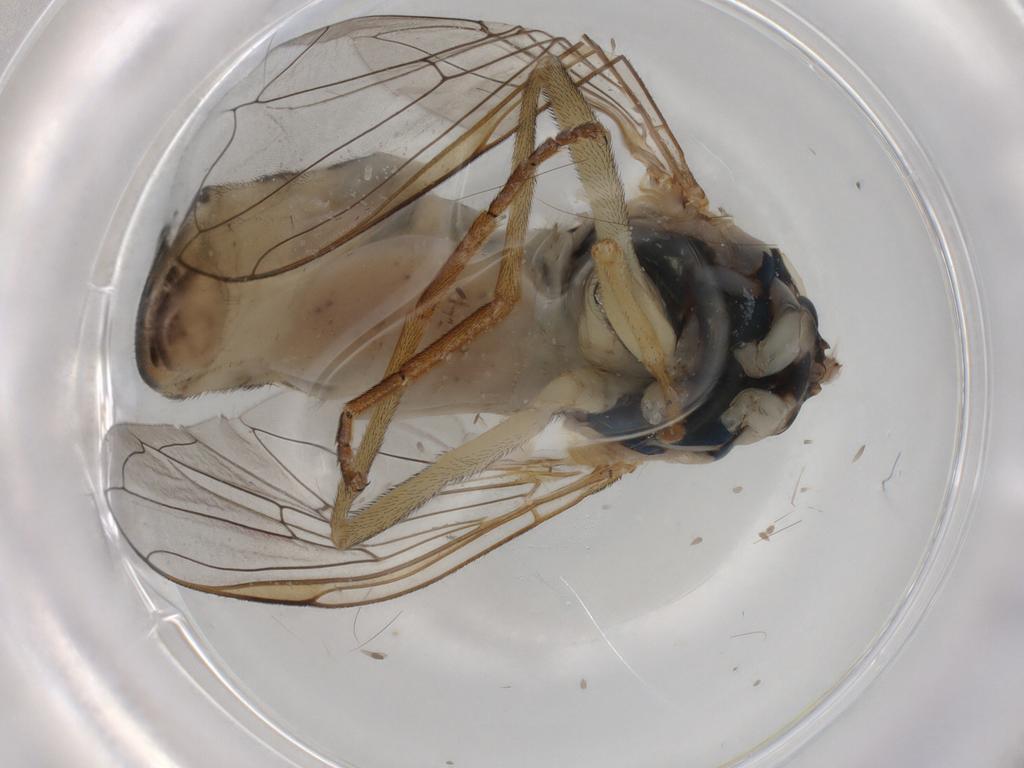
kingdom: Animalia
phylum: Arthropoda
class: Insecta
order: Diptera
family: Syrphidae
